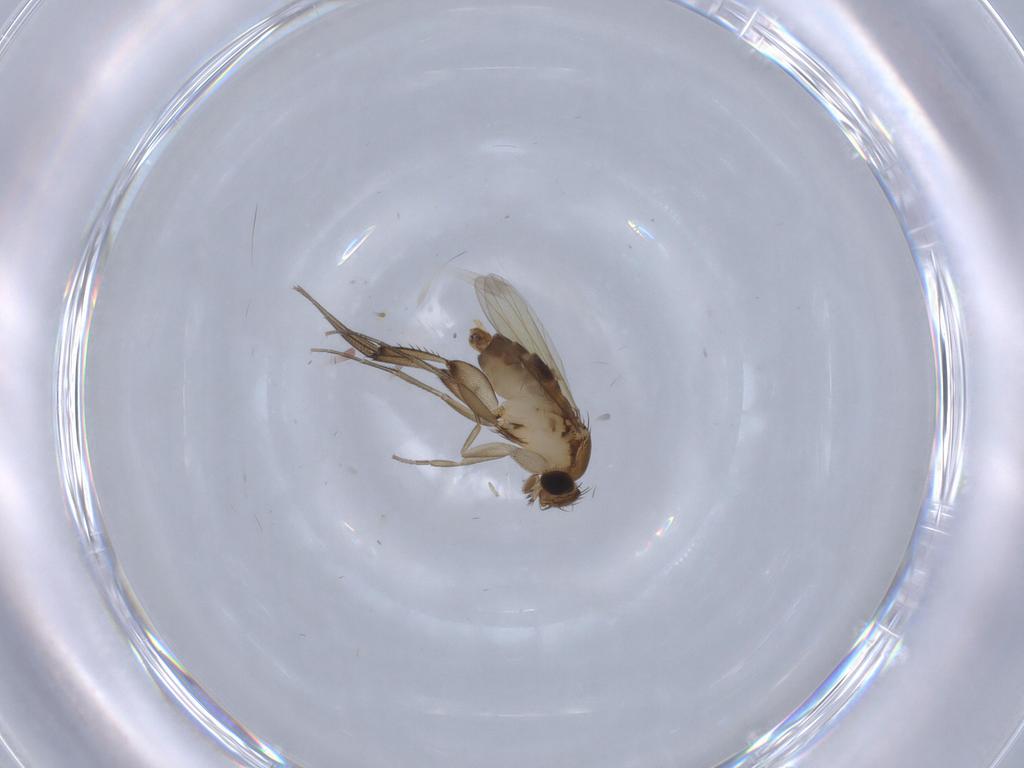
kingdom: Animalia
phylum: Arthropoda
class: Insecta
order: Diptera
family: Phoridae
